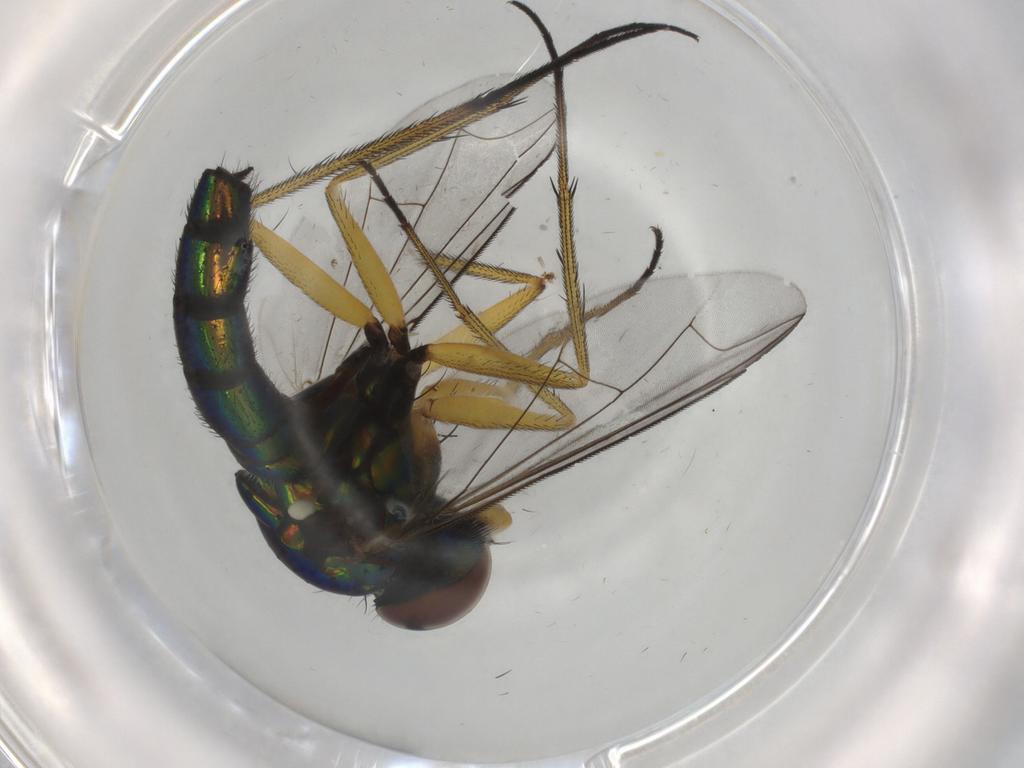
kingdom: Animalia
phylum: Arthropoda
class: Insecta
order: Diptera
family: Dolichopodidae
